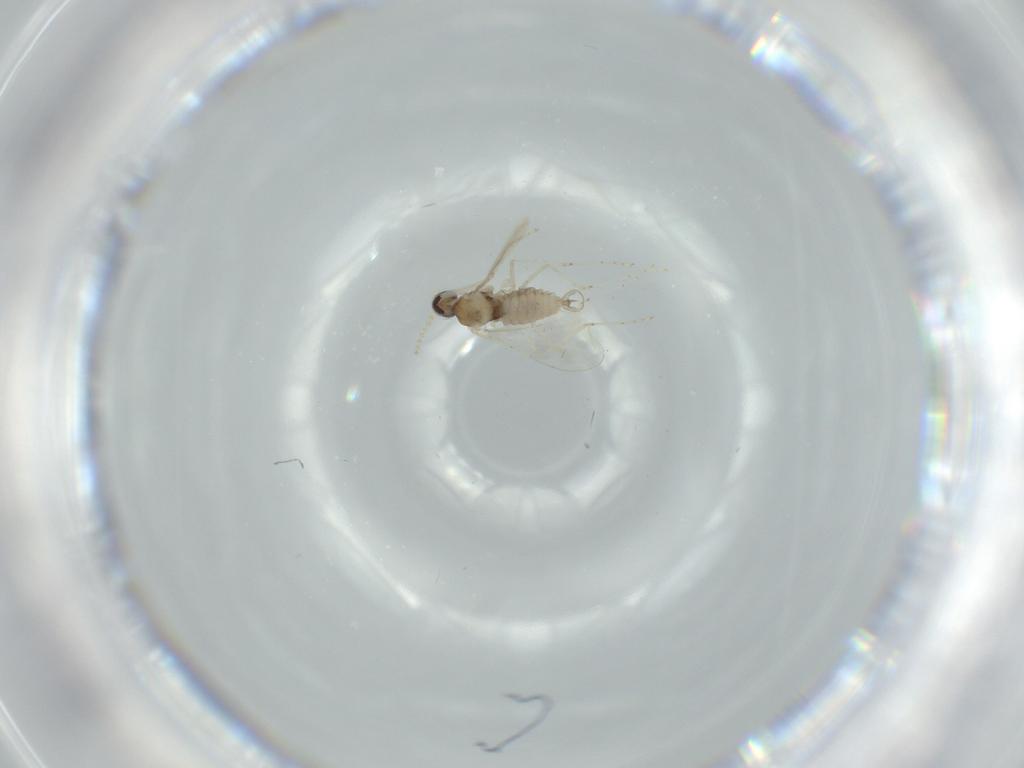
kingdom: Animalia
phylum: Arthropoda
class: Insecta
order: Diptera
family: Cecidomyiidae
